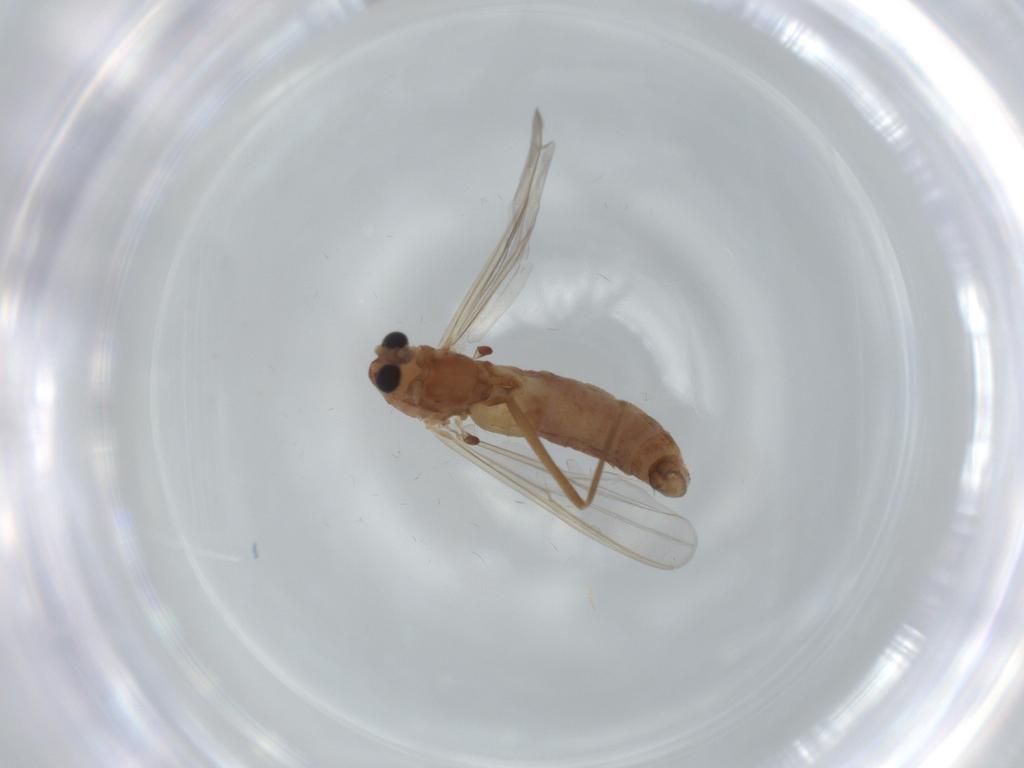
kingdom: Animalia
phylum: Arthropoda
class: Insecta
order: Diptera
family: Chironomidae
